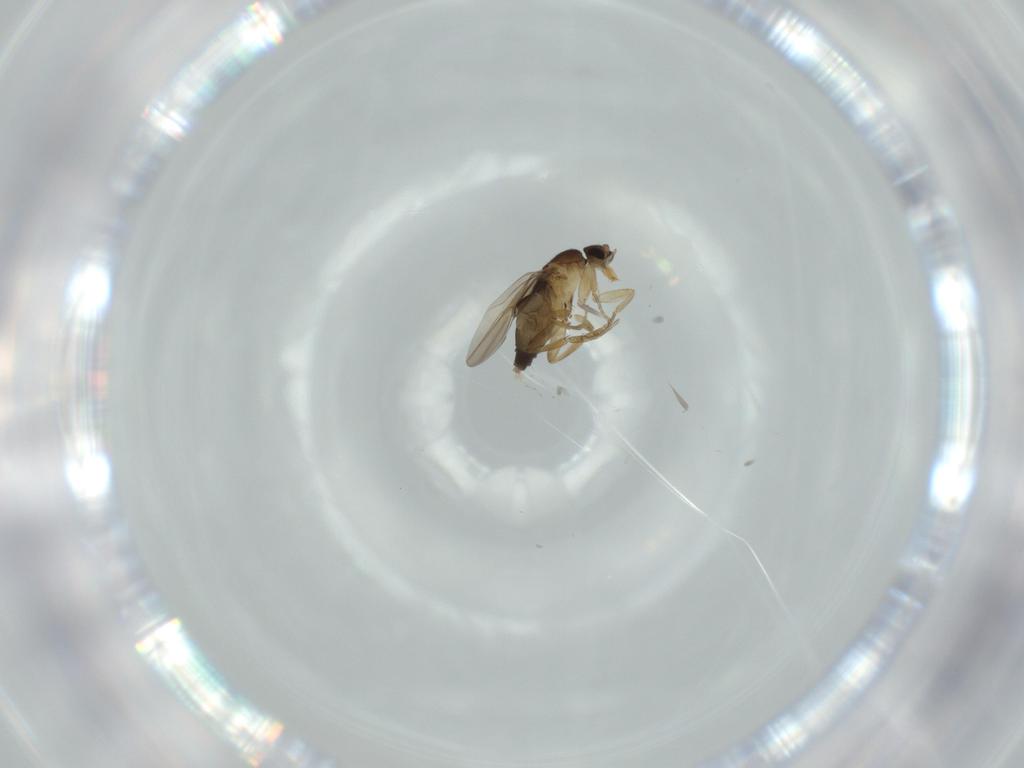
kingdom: Animalia
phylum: Arthropoda
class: Insecta
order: Diptera
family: Phoridae
